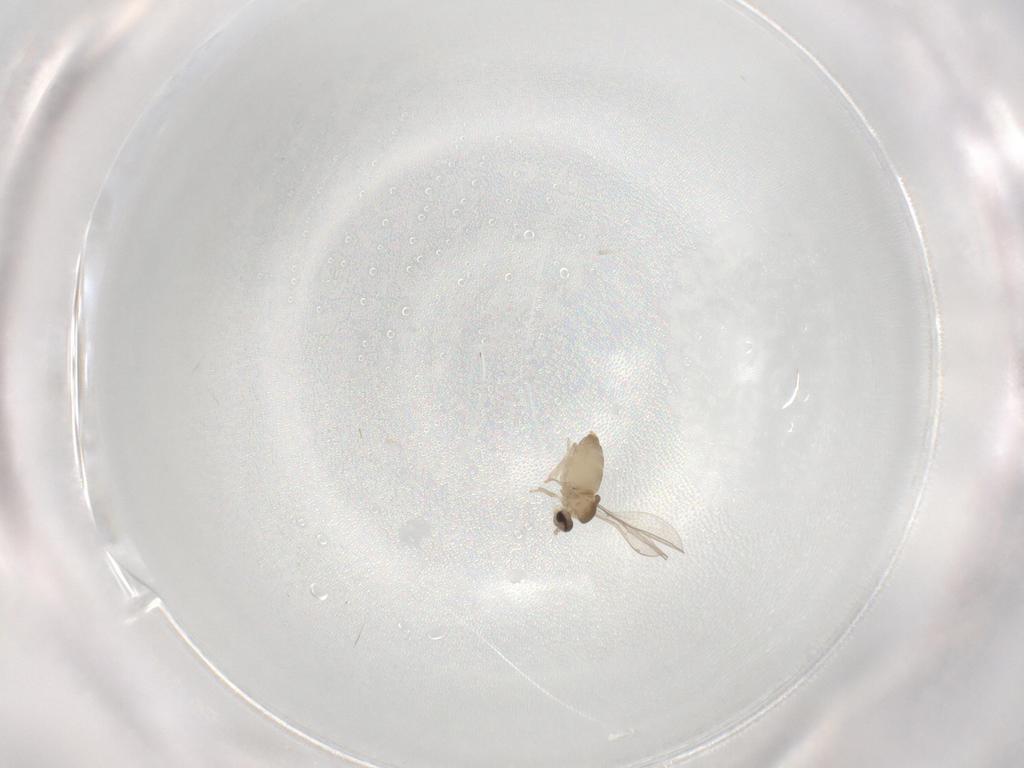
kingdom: Animalia
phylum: Arthropoda
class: Insecta
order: Diptera
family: Cecidomyiidae
